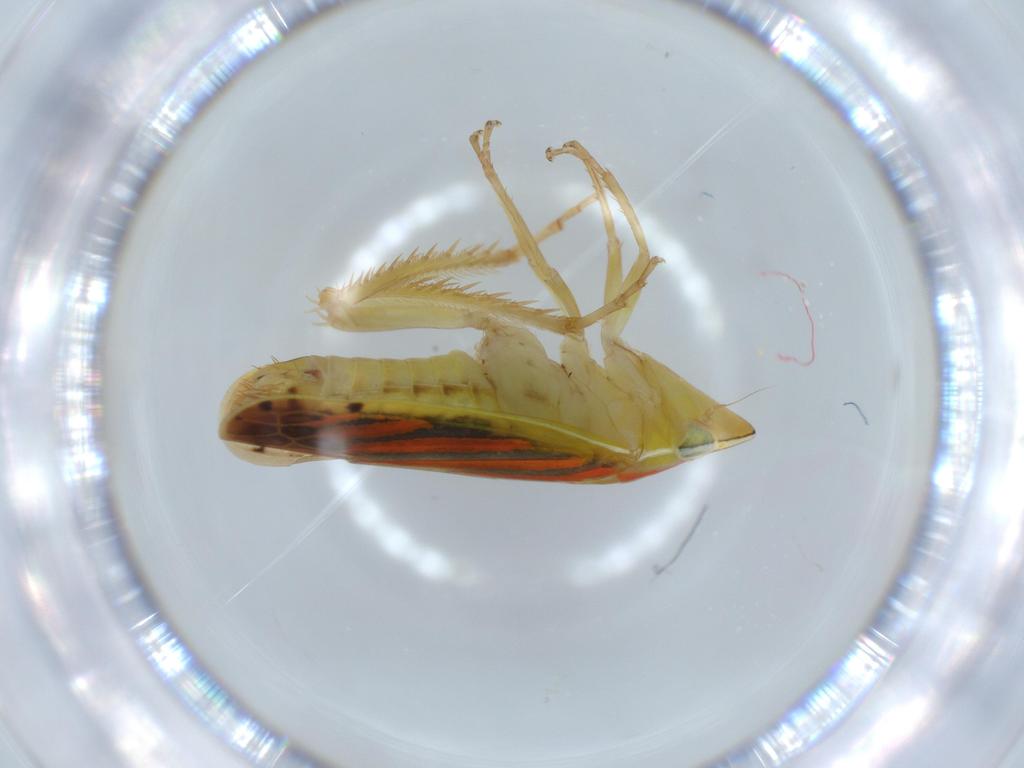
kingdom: Animalia
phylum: Arthropoda
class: Insecta
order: Hemiptera
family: Cicadellidae
